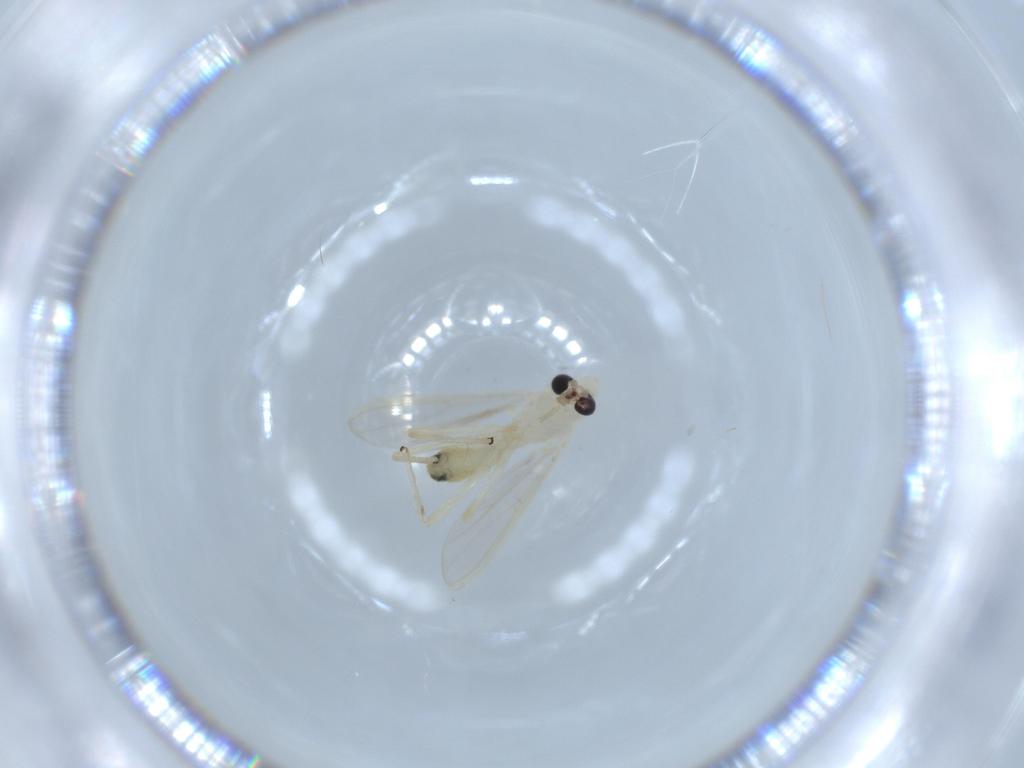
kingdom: Animalia
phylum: Arthropoda
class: Insecta
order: Diptera
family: Chironomidae
